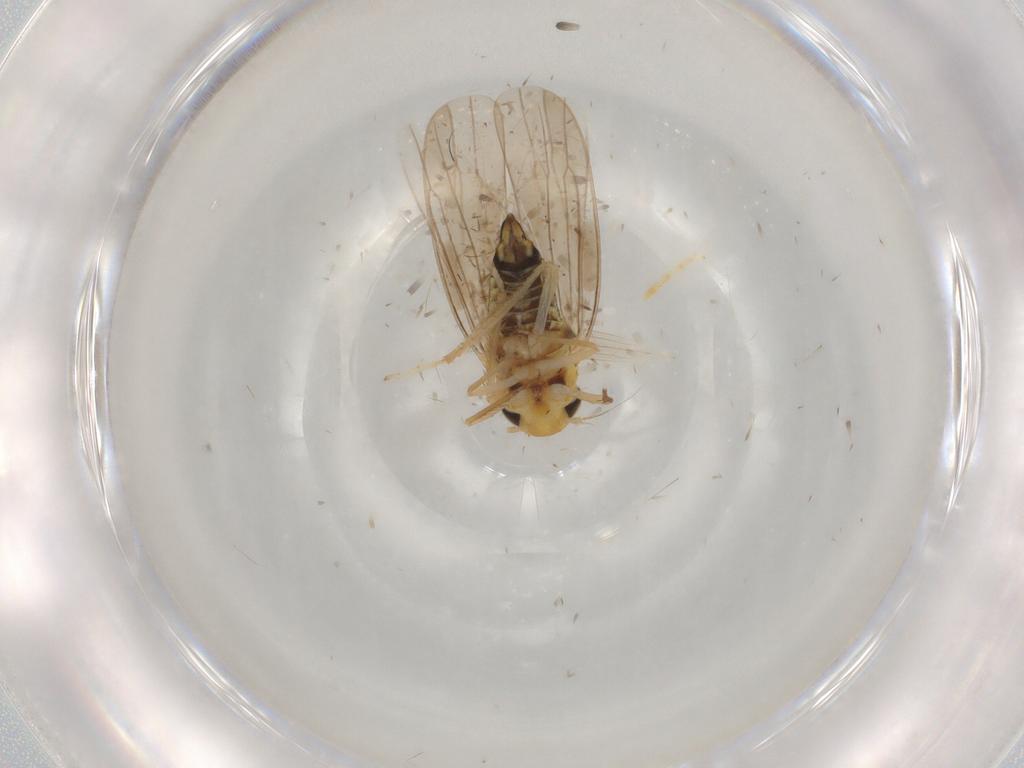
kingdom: Animalia
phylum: Arthropoda
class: Insecta
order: Hemiptera
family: Cicadellidae
